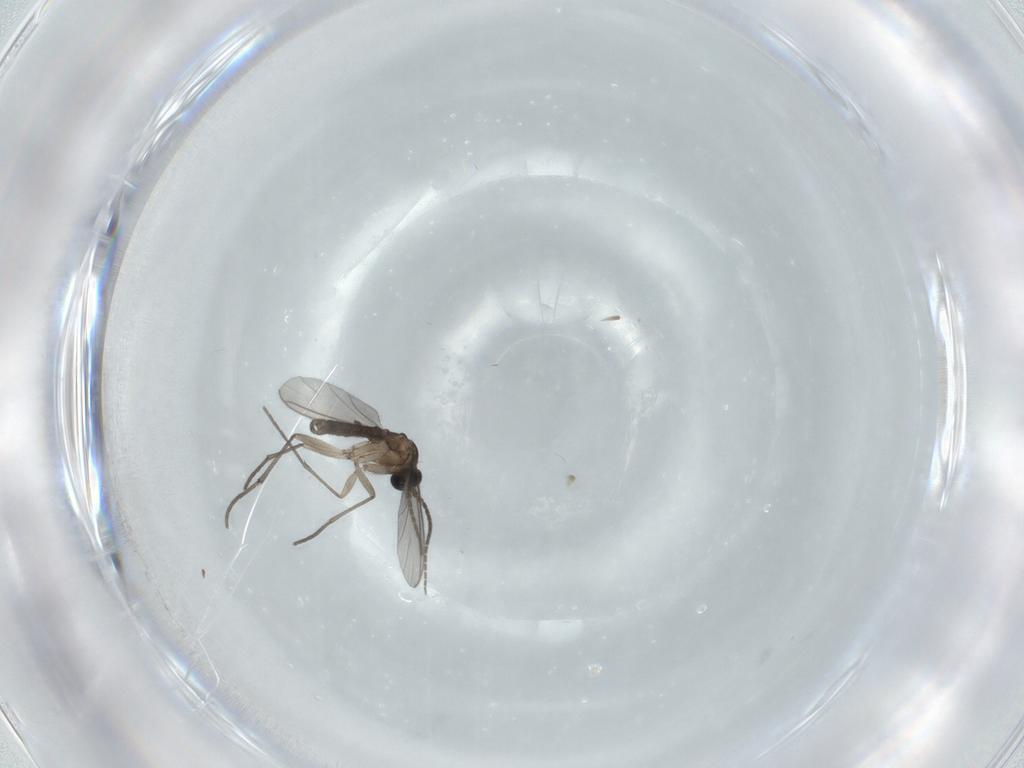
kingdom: Animalia
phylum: Arthropoda
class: Insecta
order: Diptera
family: Sciaridae
